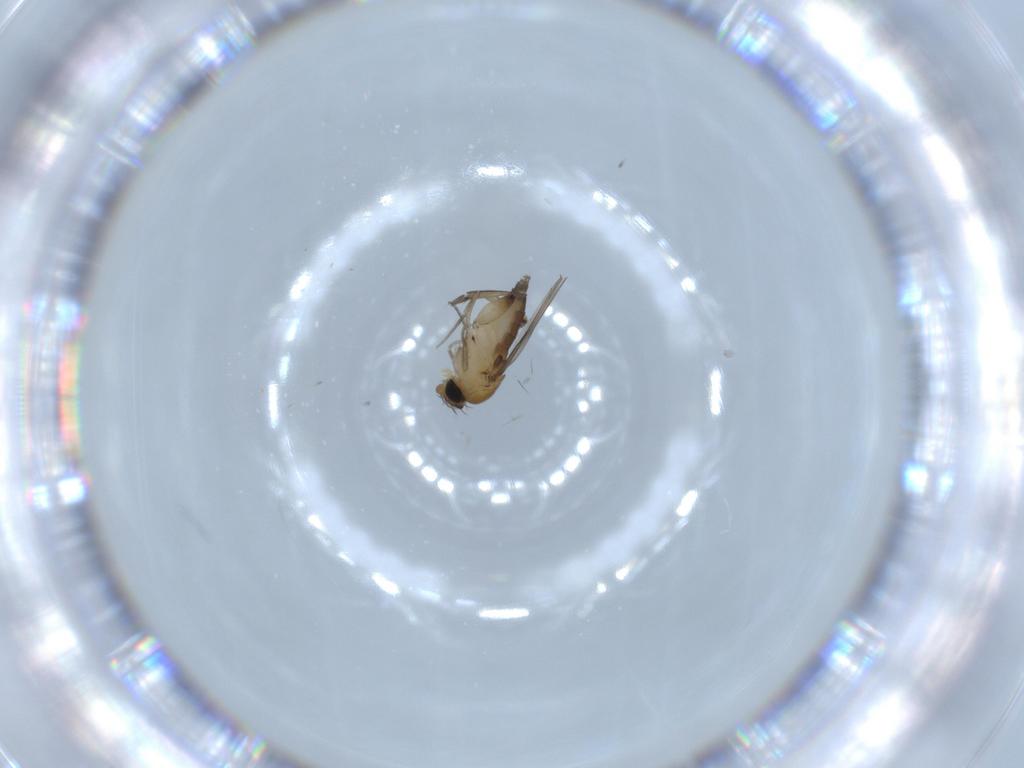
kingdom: Animalia
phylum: Arthropoda
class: Insecta
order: Diptera
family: Phoridae
